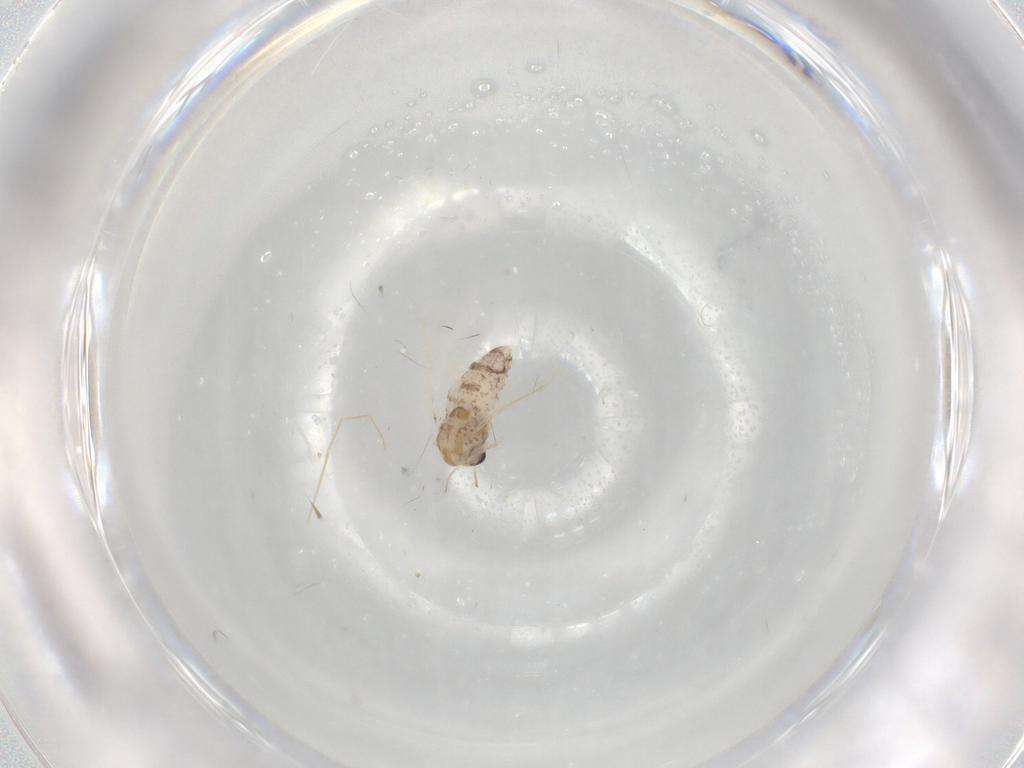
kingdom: Animalia
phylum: Arthropoda
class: Insecta
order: Diptera
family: Chironomidae
